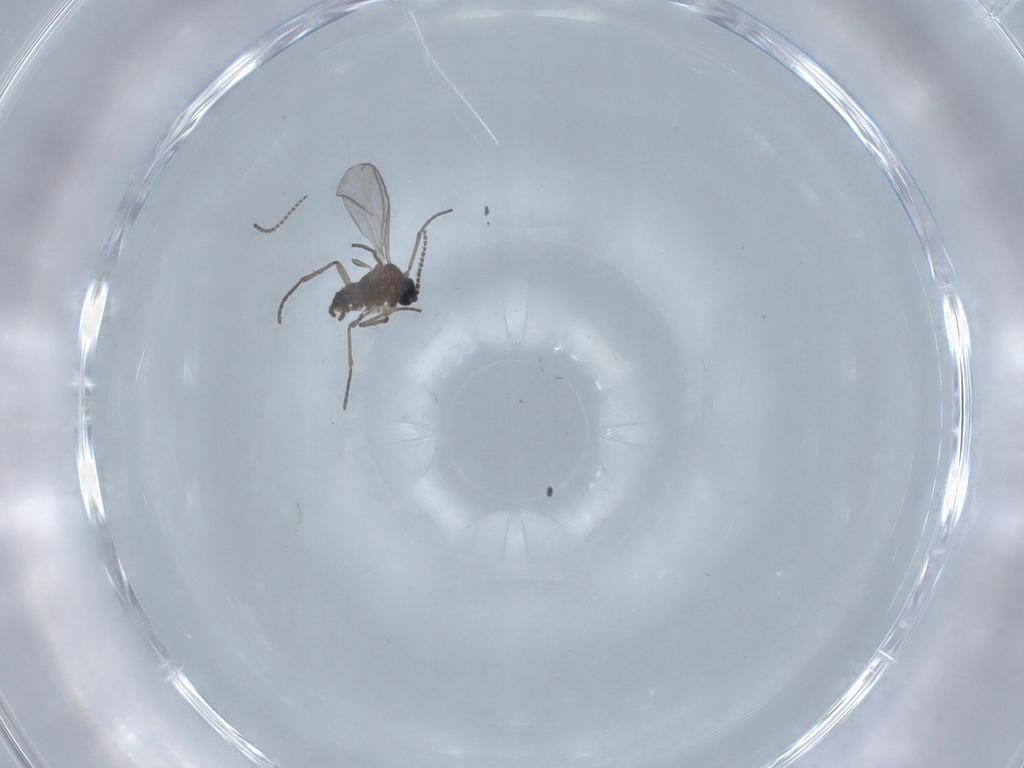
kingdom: Animalia
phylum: Arthropoda
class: Insecta
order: Diptera
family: Chironomidae
